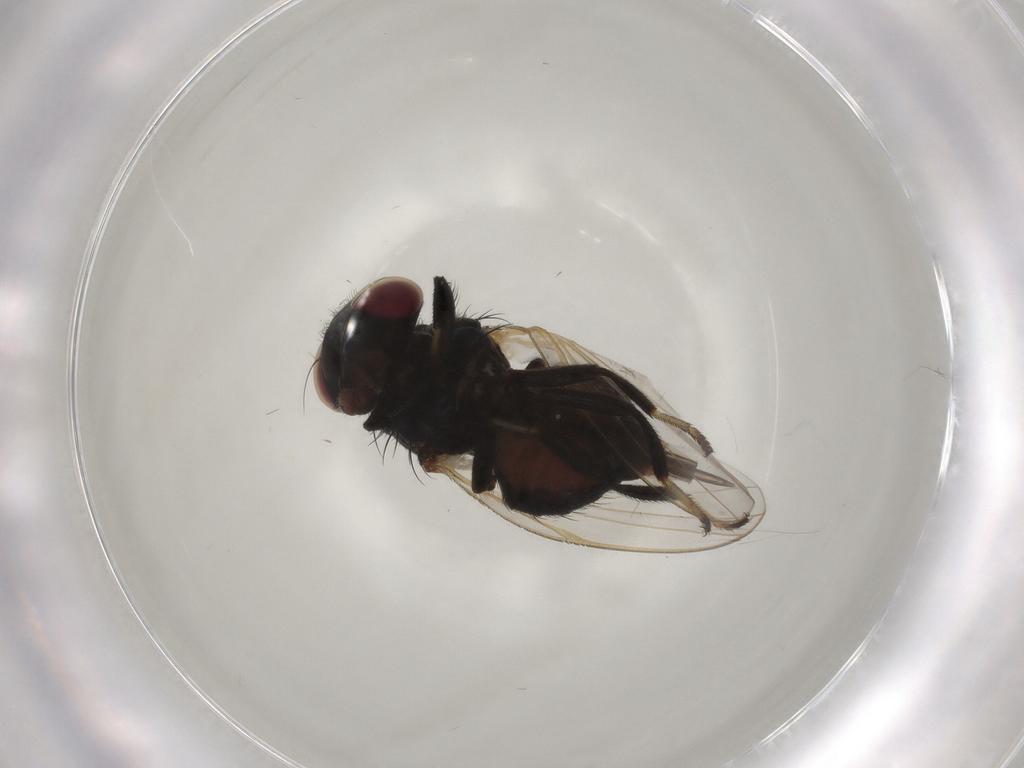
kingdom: Animalia
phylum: Arthropoda
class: Insecta
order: Diptera
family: Lonchaeidae
